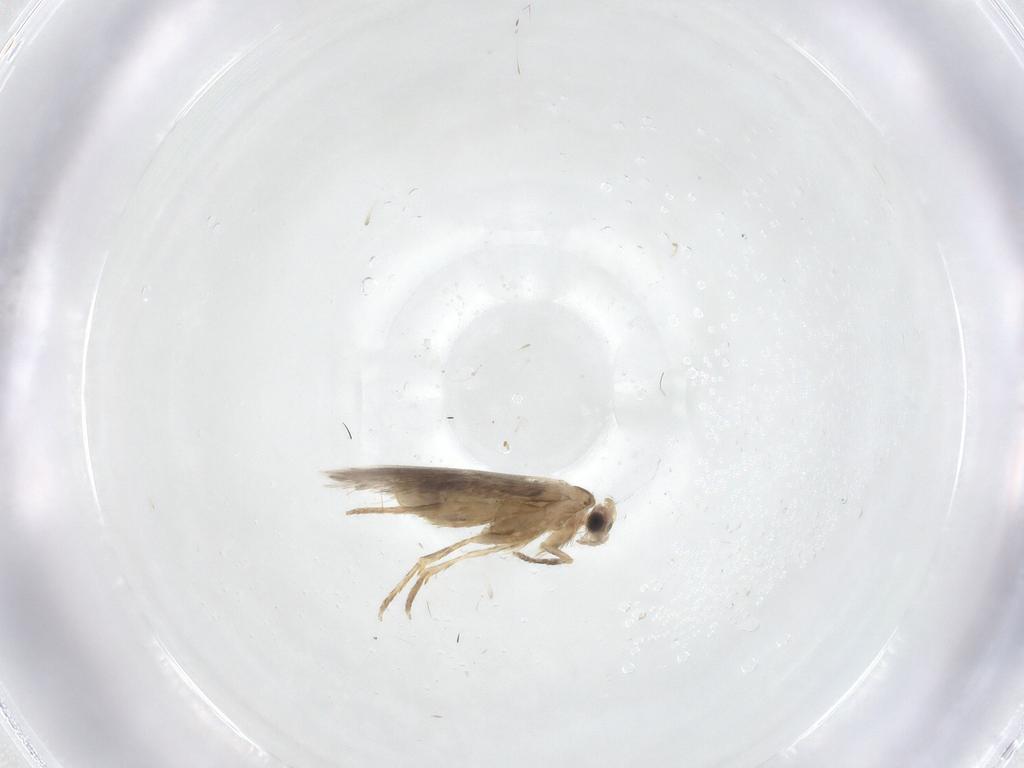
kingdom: Animalia
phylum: Arthropoda
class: Insecta
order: Lepidoptera
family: Nepticulidae
